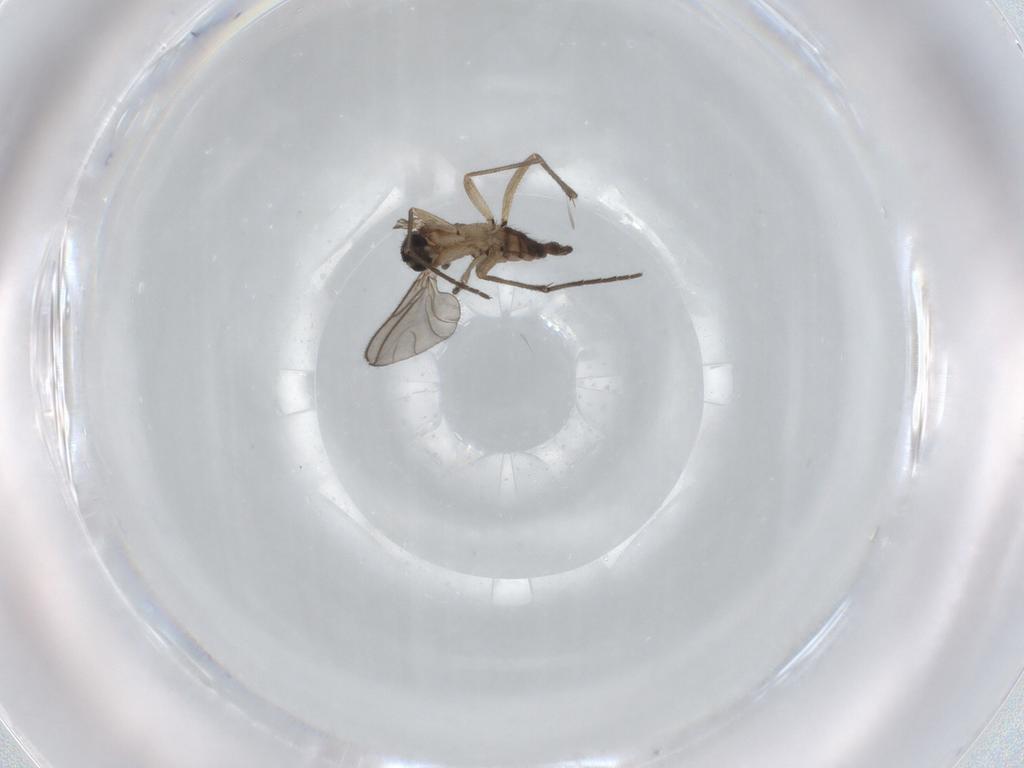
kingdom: Animalia
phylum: Arthropoda
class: Insecta
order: Diptera
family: Sciaridae
